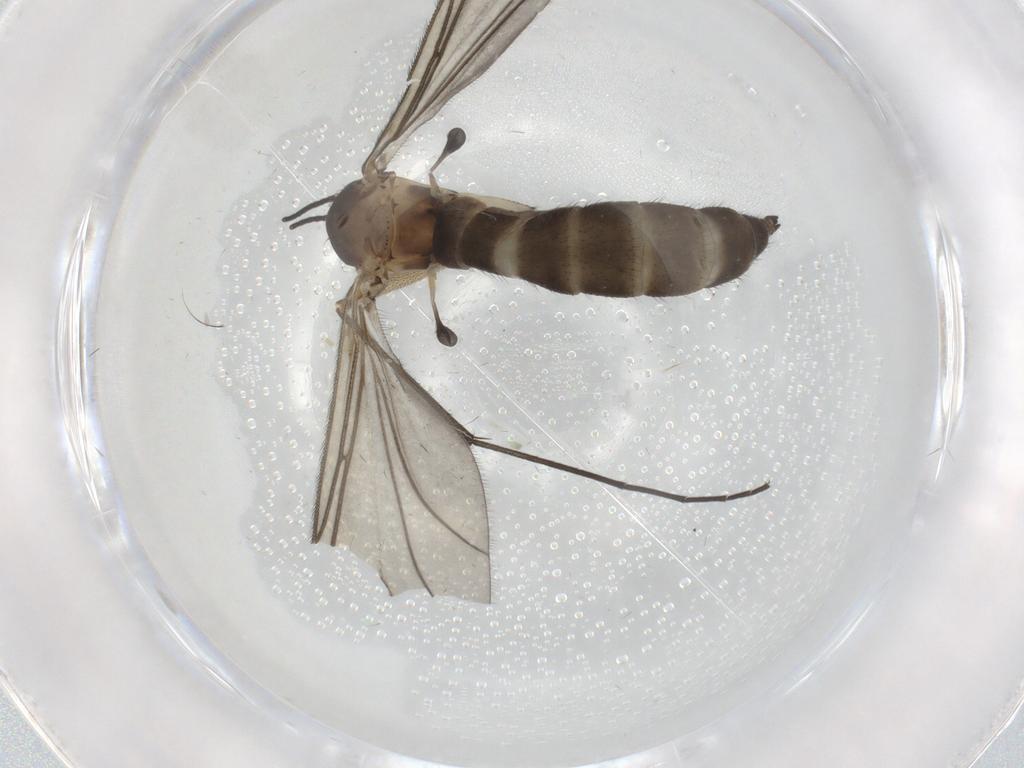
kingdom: Animalia
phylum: Arthropoda
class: Insecta
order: Diptera
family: Sciaridae
